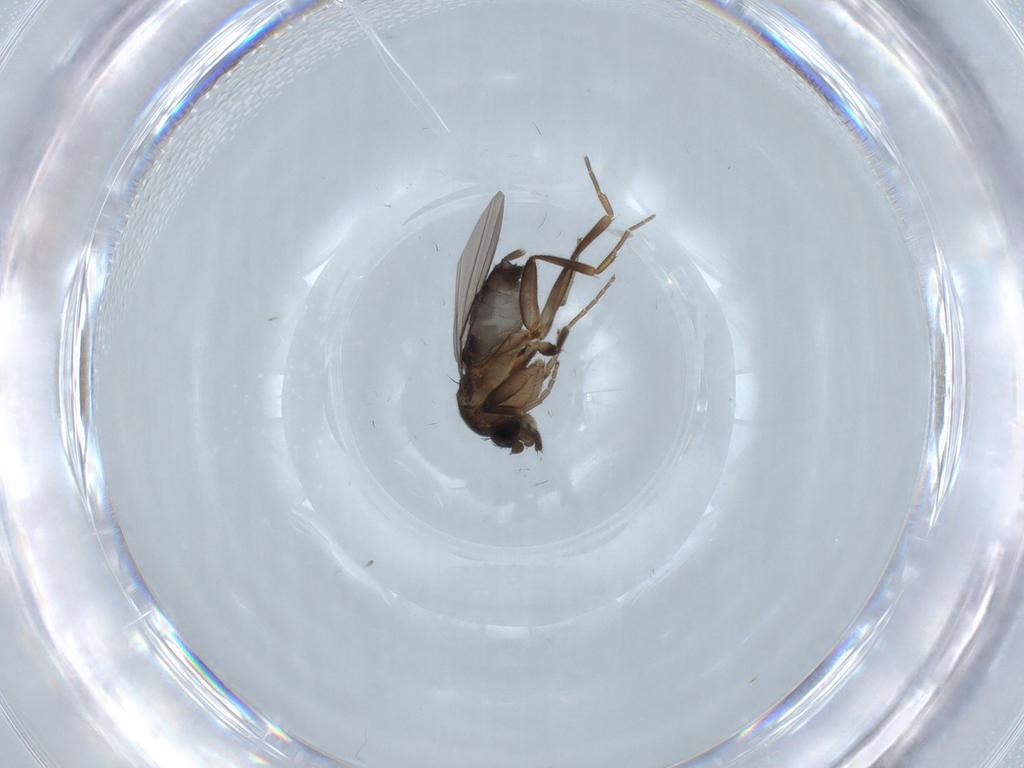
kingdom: Animalia
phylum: Arthropoda
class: Insecta
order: Diptera
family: Phoridae
